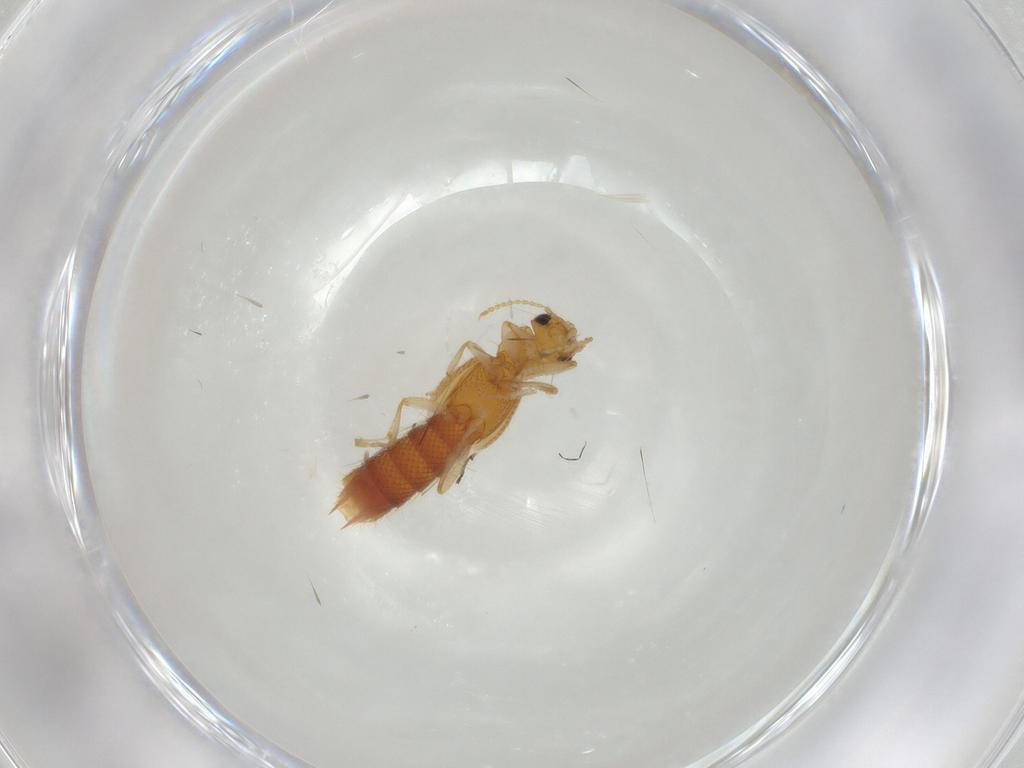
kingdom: Animalia
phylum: Arthropoda
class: Insecta
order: Coleoptera
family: Staphylinidae
